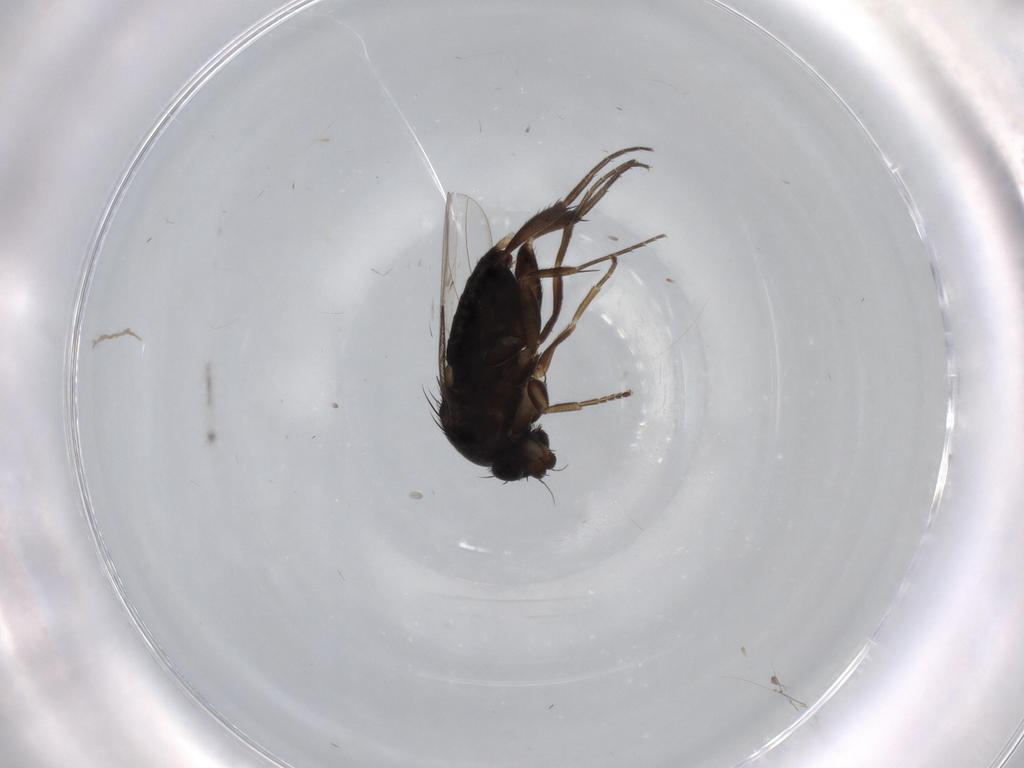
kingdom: Animalia
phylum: Arthropoda
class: Insecta
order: Diptera
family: Phoridae
